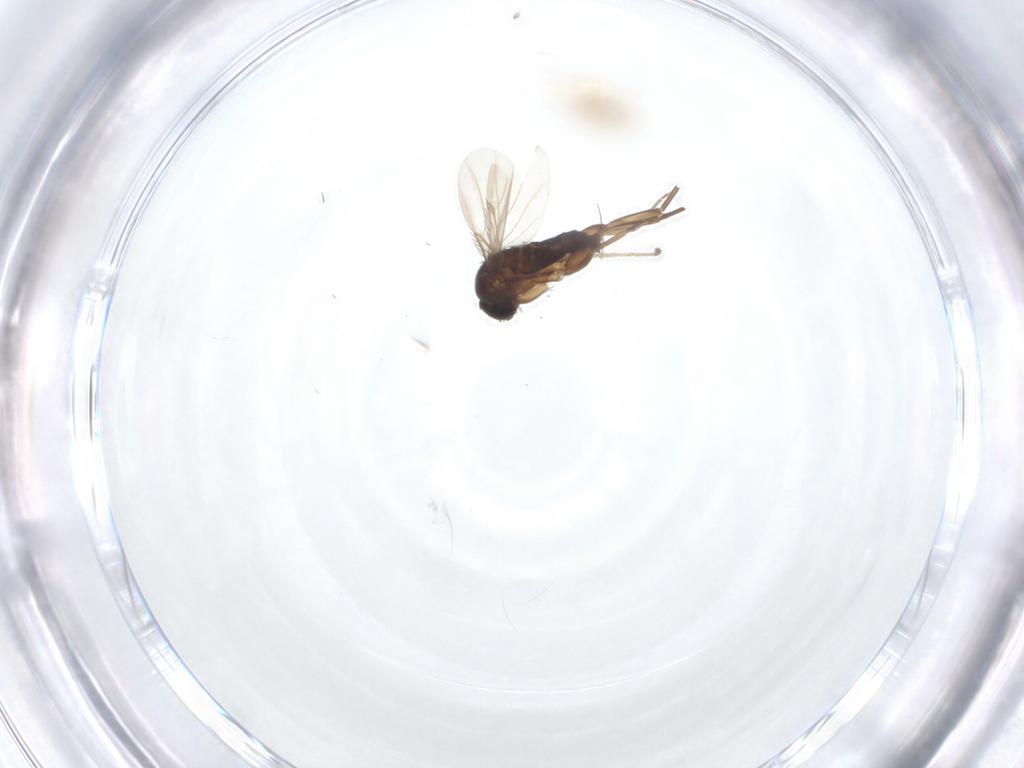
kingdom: Animalia
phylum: Arthropoda
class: Insecta
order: Diptera
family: Phoridae
